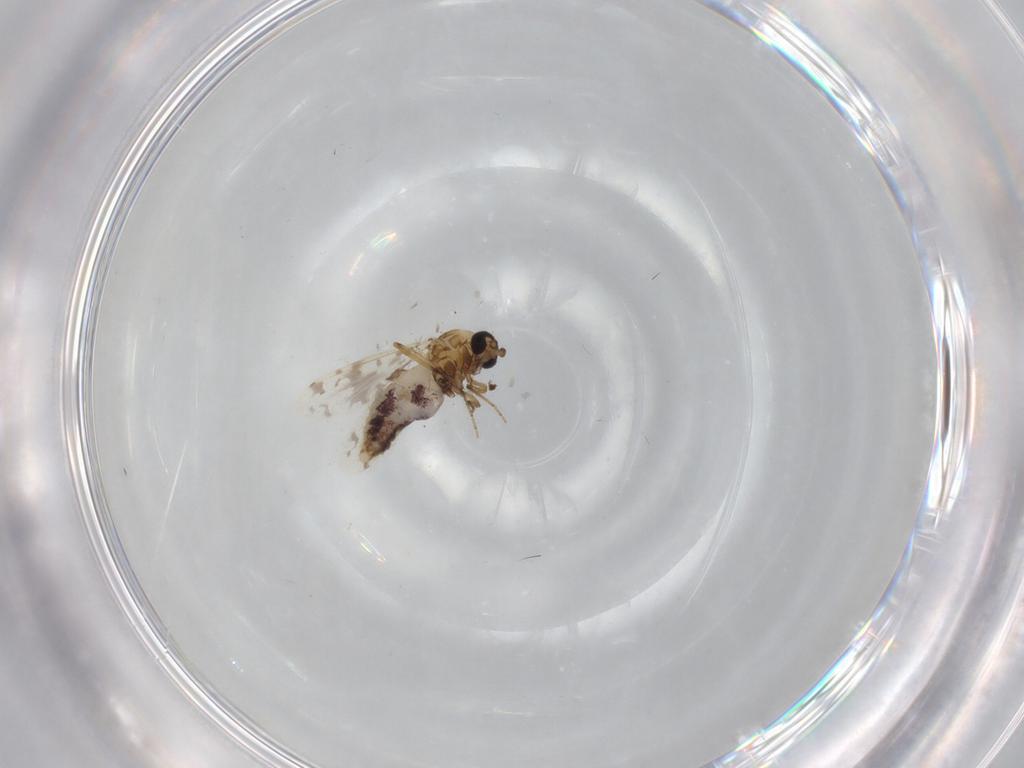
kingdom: Animalia
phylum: Arthropoda
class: Insecta
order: Diptera
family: Ceratopogonidae
